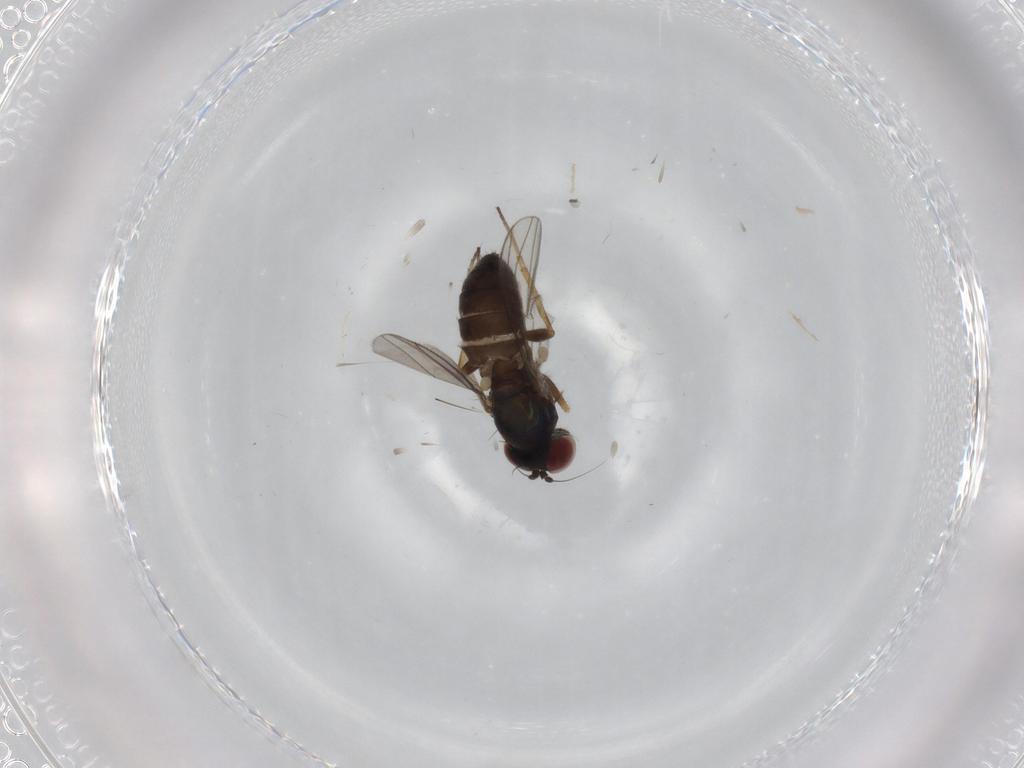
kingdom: Animalia
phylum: Arthropoda
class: Insecta
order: Diptera
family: Dolichopodidae
